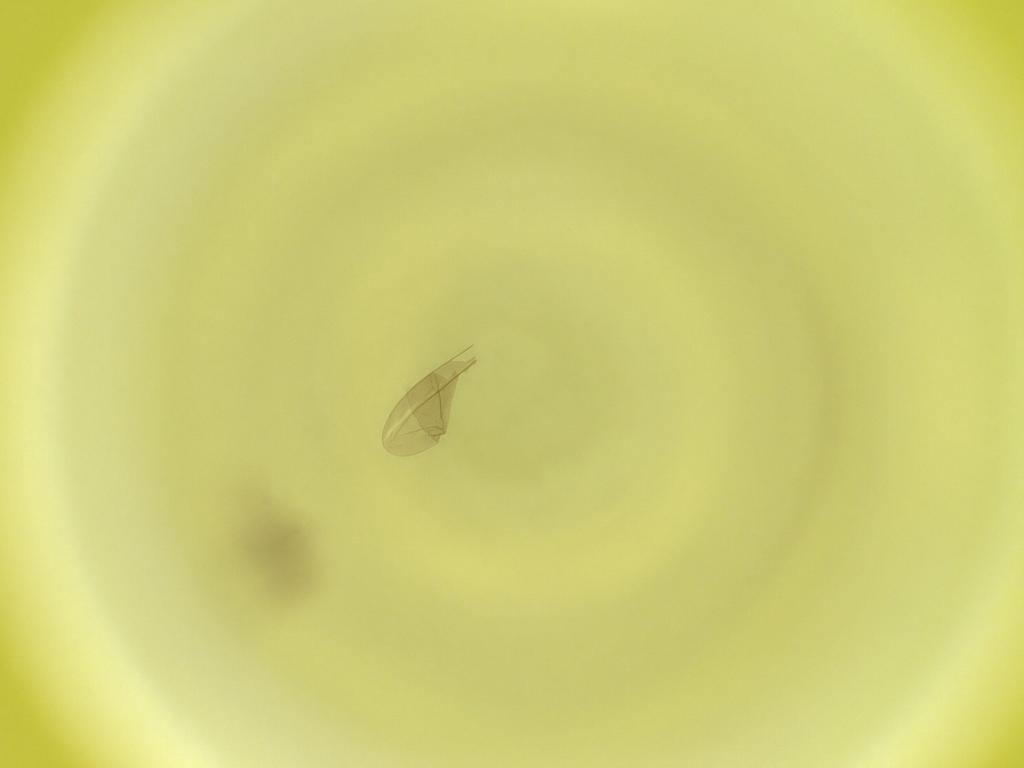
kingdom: Animalia
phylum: Arthropoda
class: Insecta
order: Diptera
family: Cecidomyiidae
